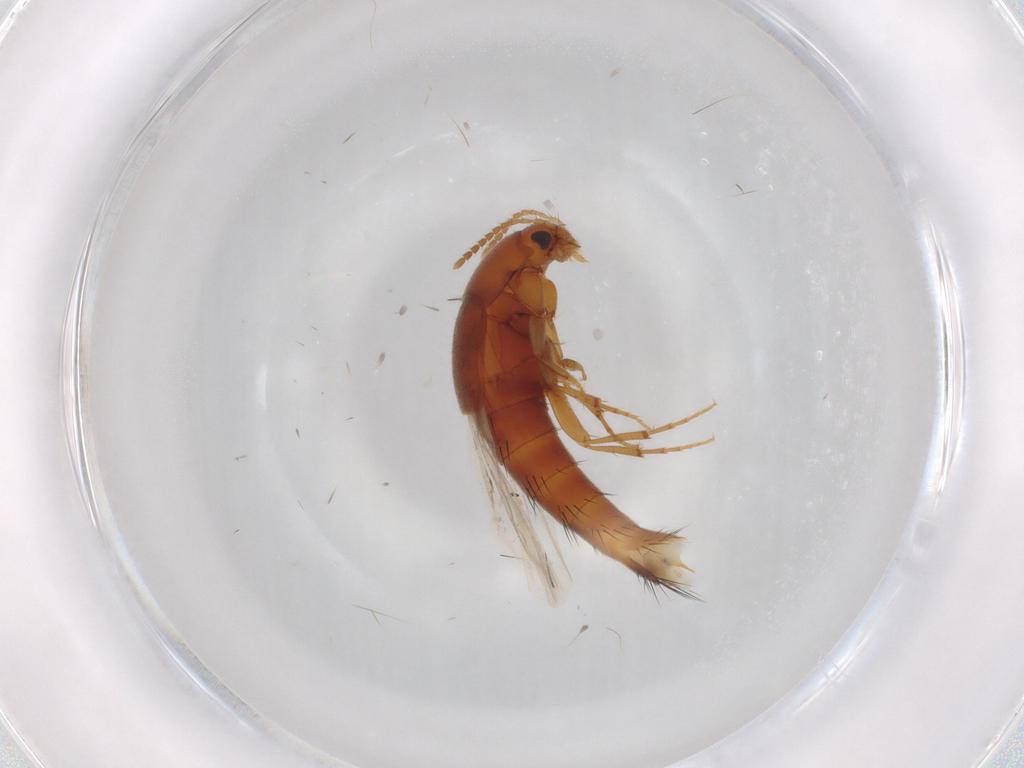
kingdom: Animalia
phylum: Arthropoda
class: Insecta
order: Coleoptera
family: Staphylinidae
